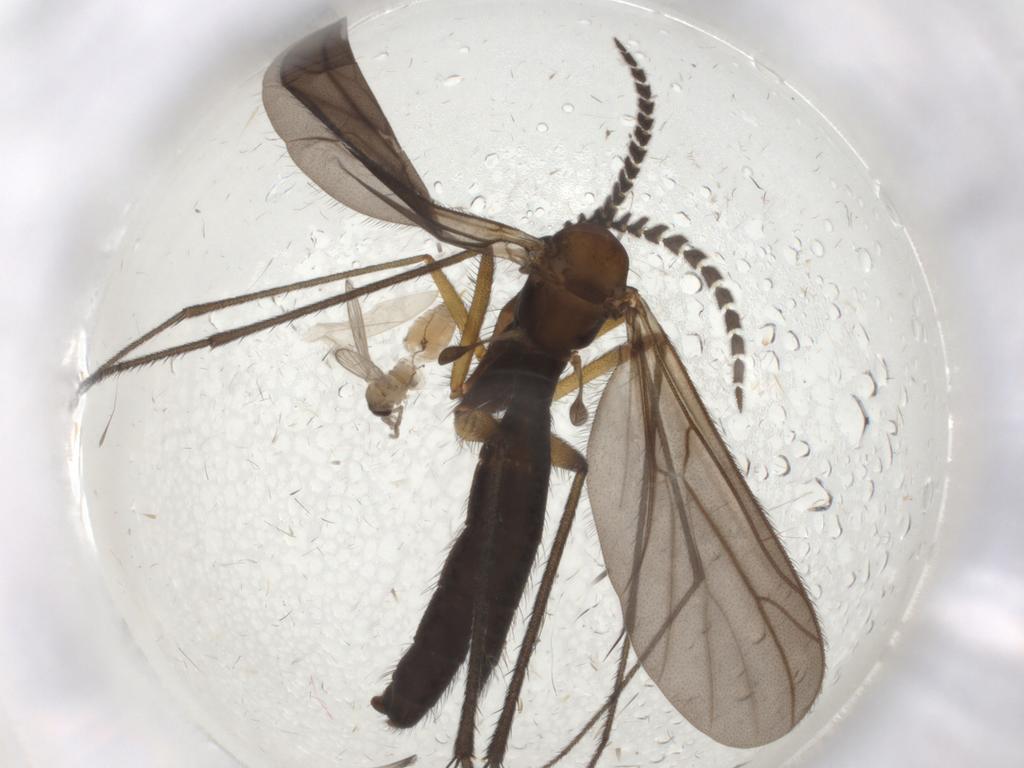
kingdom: Animalia
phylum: Arthropoda
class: Insecta
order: Diptera
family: Ditomyiidae
